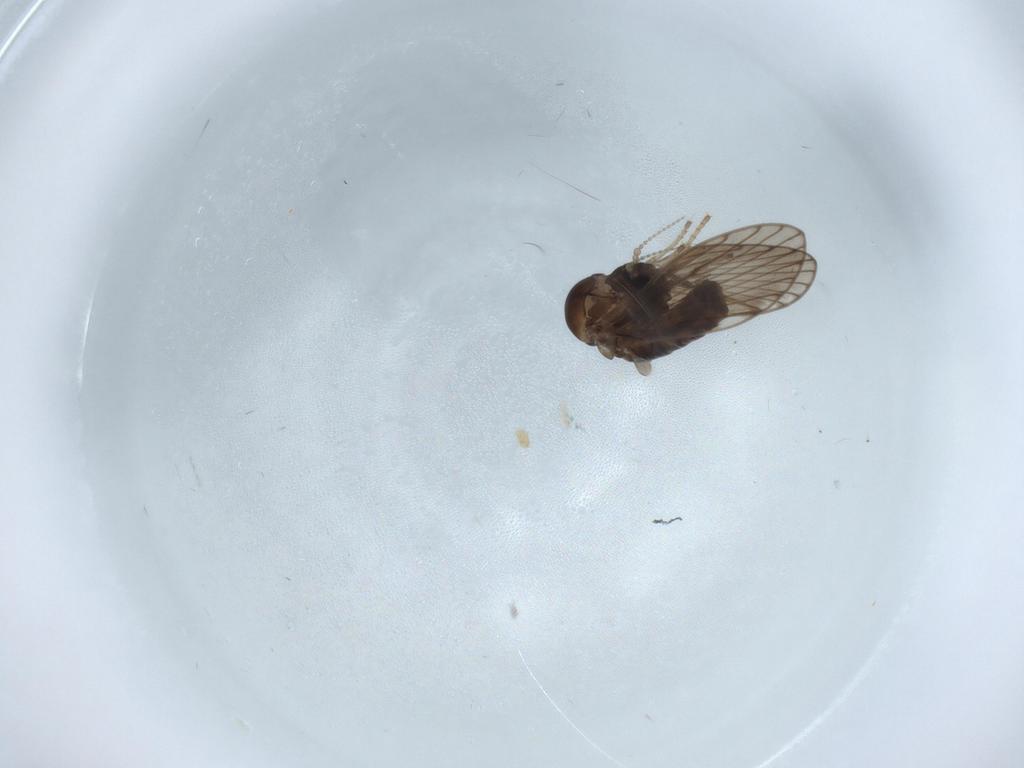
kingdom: Animalia
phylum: Arthropoda
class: Insecta
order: Diptera
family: Psychodidae
